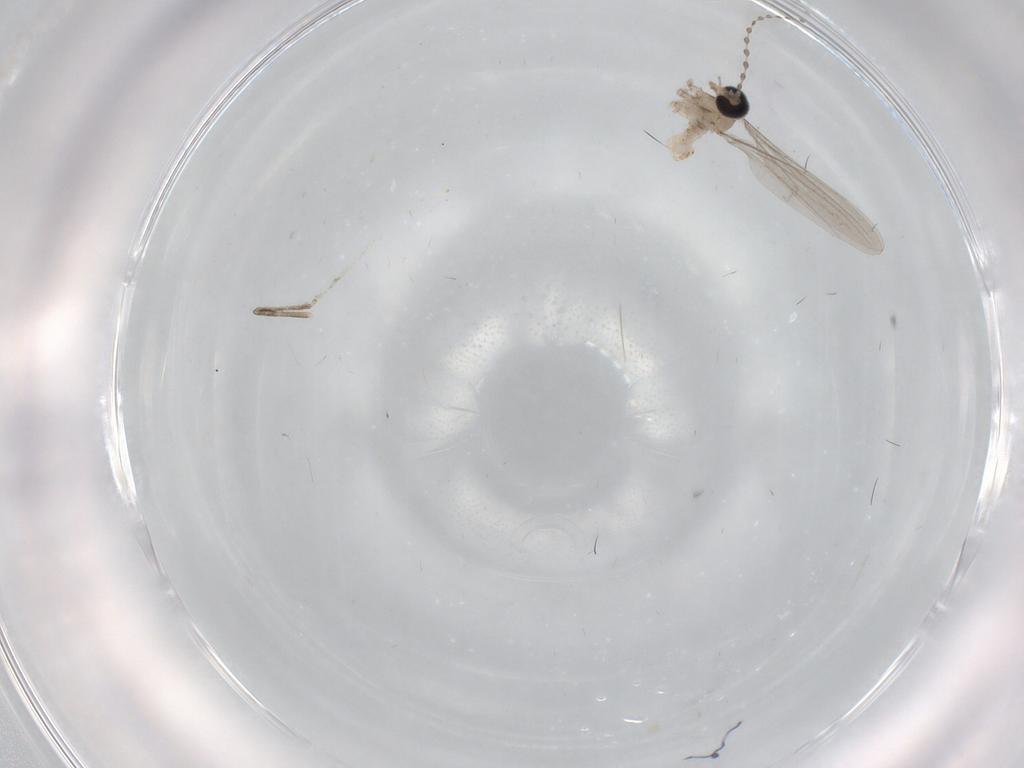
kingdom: Animalia
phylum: Arthropoda
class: Insecta
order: Diptera
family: Cecidomyiidae
